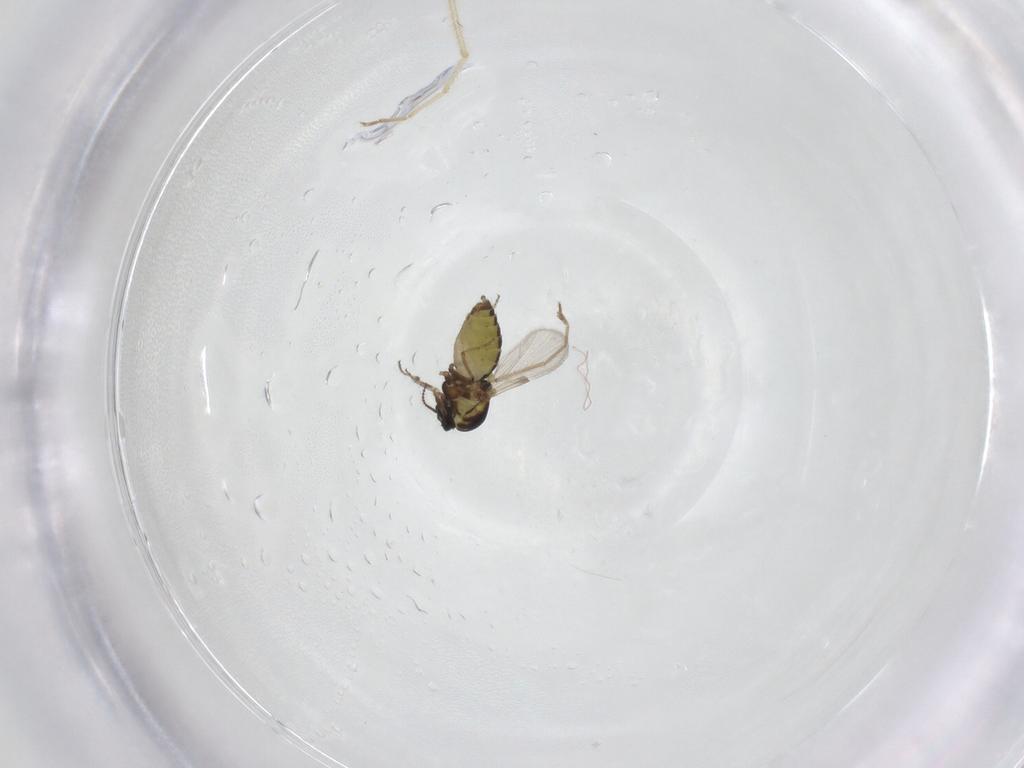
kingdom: Animalia
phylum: Arthropoda
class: Insecta
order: Diptera
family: Ceratopogonidae
